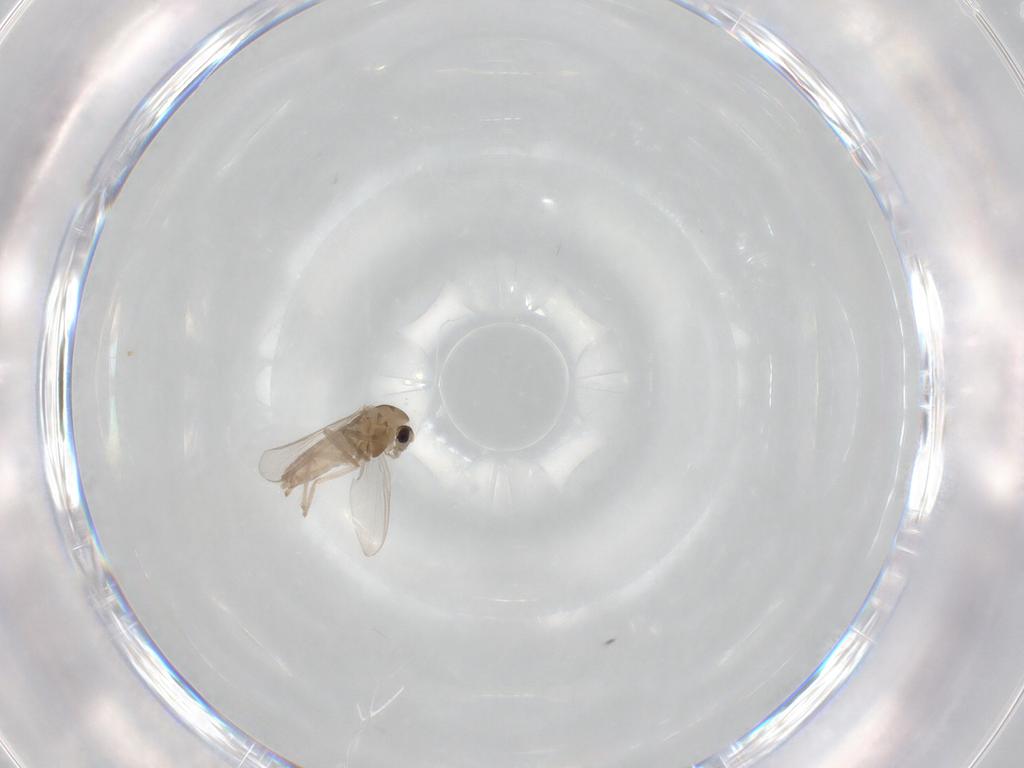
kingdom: Animalia
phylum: Arthropoda
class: Insecta
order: Diptera
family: Chironomidae
